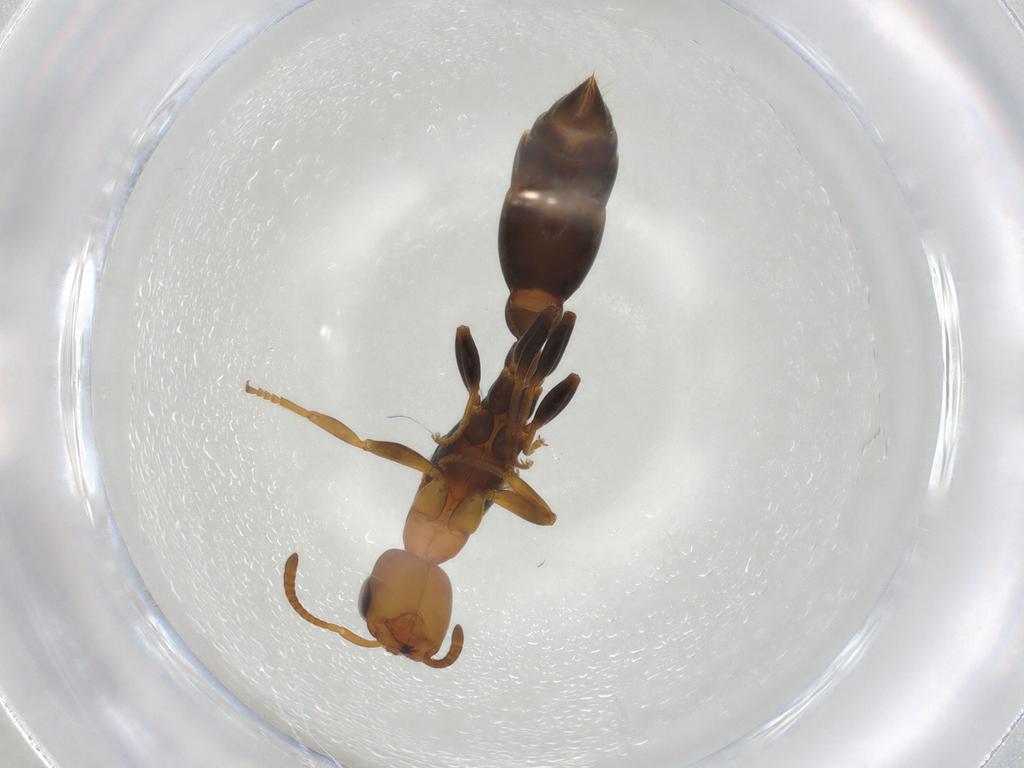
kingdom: Animalia
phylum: Arthropoda
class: Insecta
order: Hymenoptera
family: Formicidae
